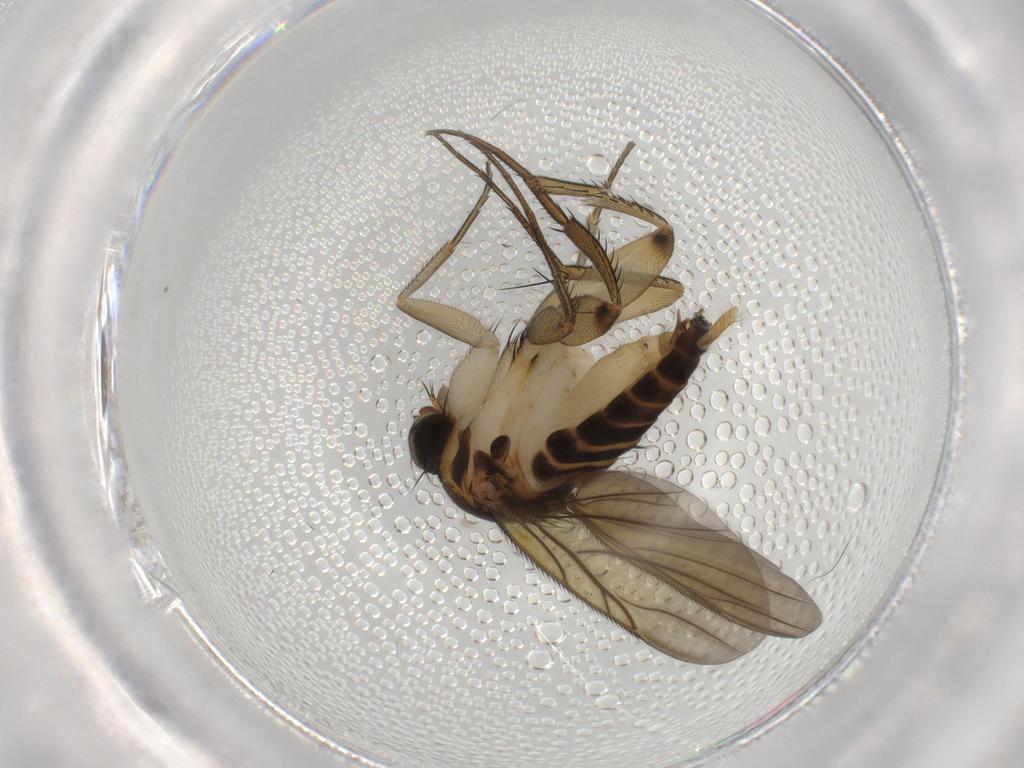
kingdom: Animalia
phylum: Arthropoda
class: Insecta
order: Diptera
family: Phoridae
